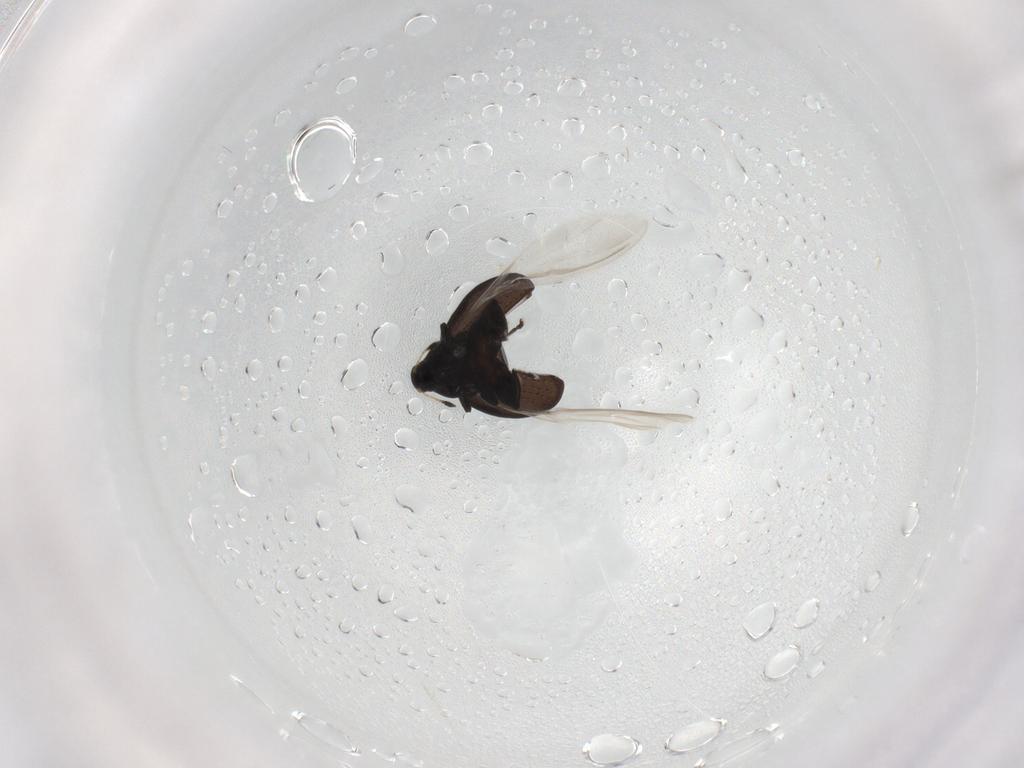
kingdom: Animalia
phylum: Arthropoda
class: Insecta
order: Coleoptera
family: Curculionidae
